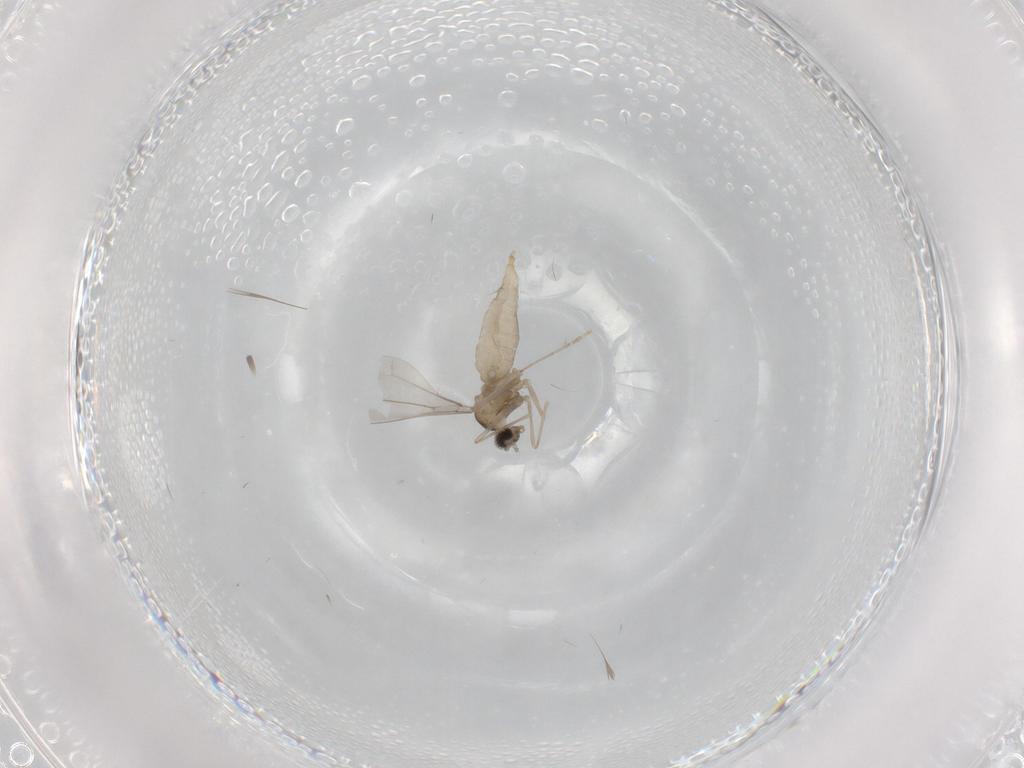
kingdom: Animalia
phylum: Arthropoda
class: Insecta
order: Diptera
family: Cecidomyiidae
